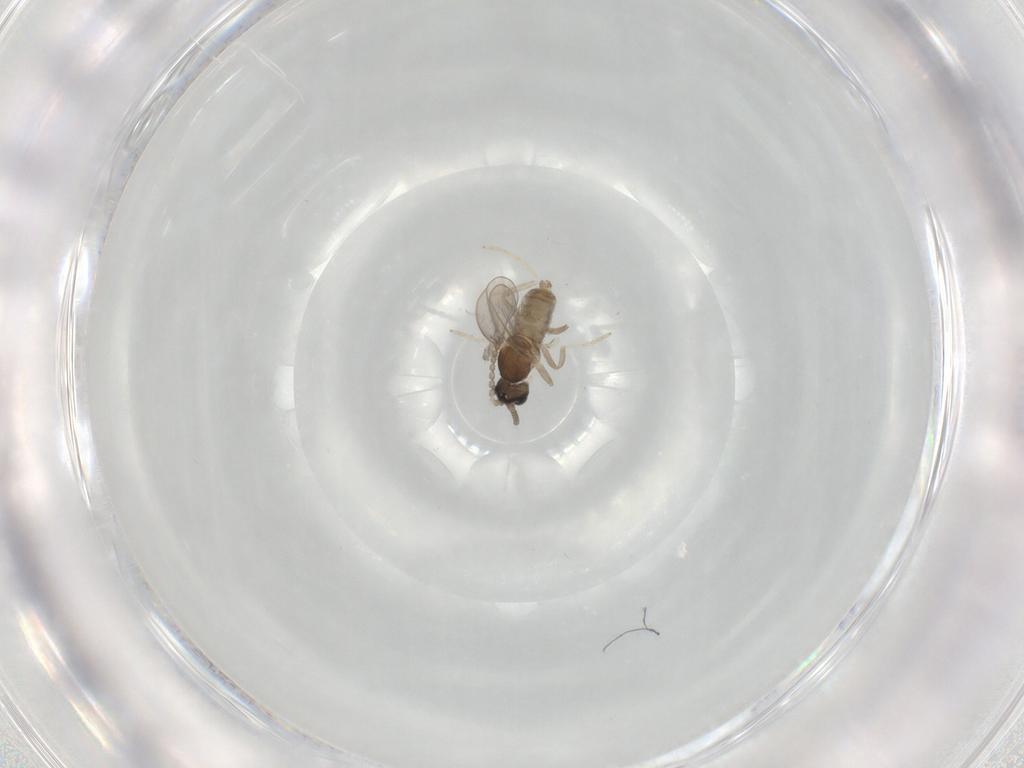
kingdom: Animalia
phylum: Arthropoda
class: Insecta
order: Diptera
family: Cecidomyiidae
